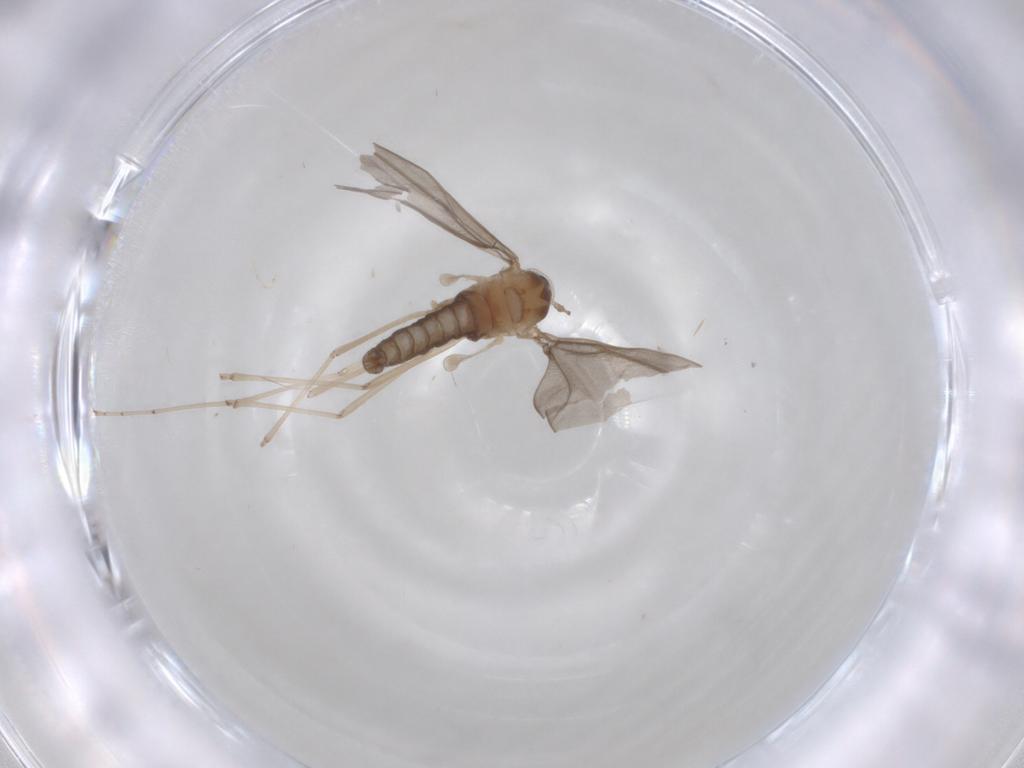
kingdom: Animalia
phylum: Arthropoda
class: Insecta
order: Diptera
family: Cecidomyiidae
